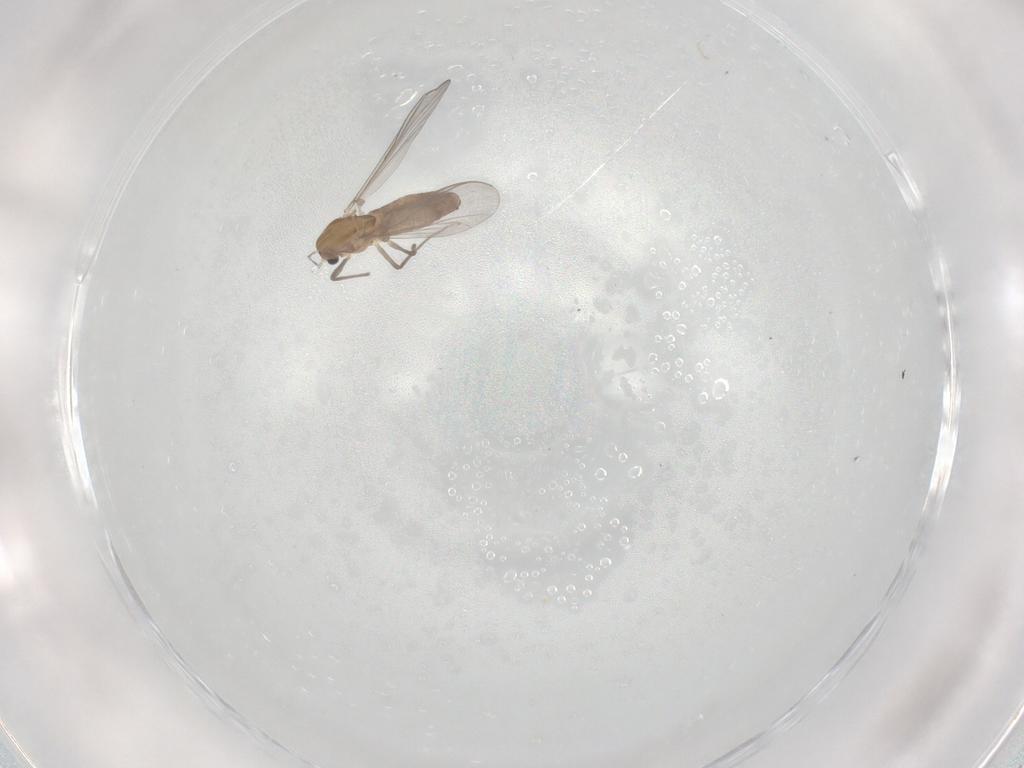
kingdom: Animalia
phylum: Arthropoda
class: Insecta
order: Diptera
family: Chironomidae
